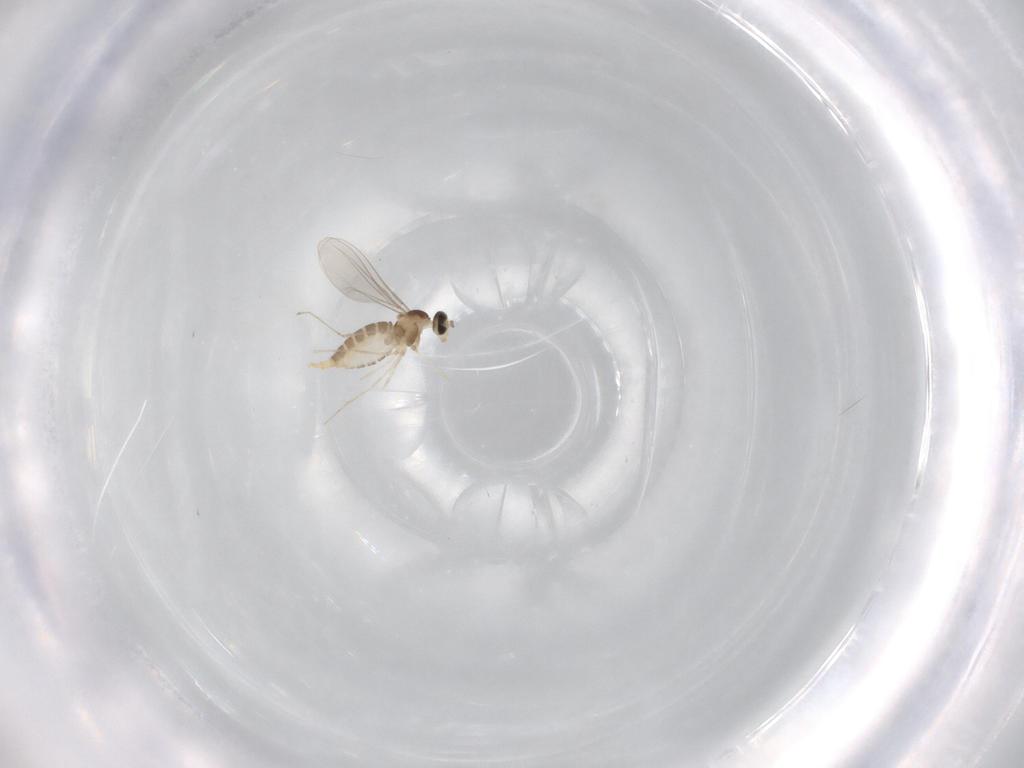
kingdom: Animalia
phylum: Arthropoda
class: Insecta
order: Diptera
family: Cecidomyiidae
